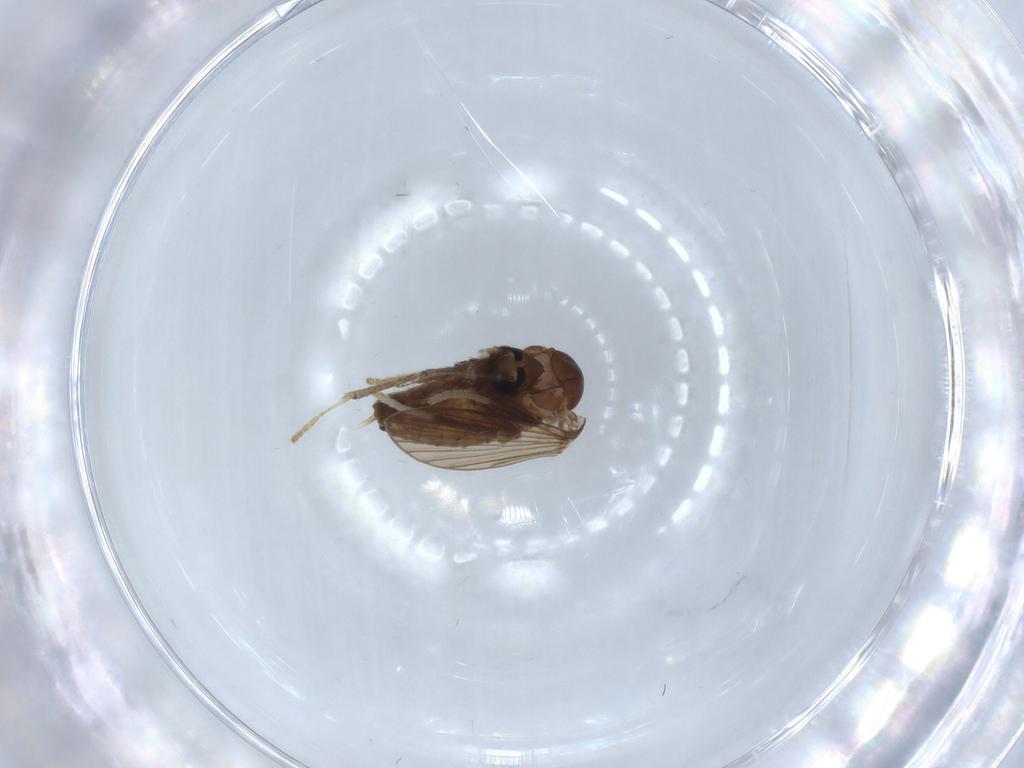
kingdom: Animalia
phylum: Arthropoda
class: Insecta
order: Diptera
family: Psychodidae
